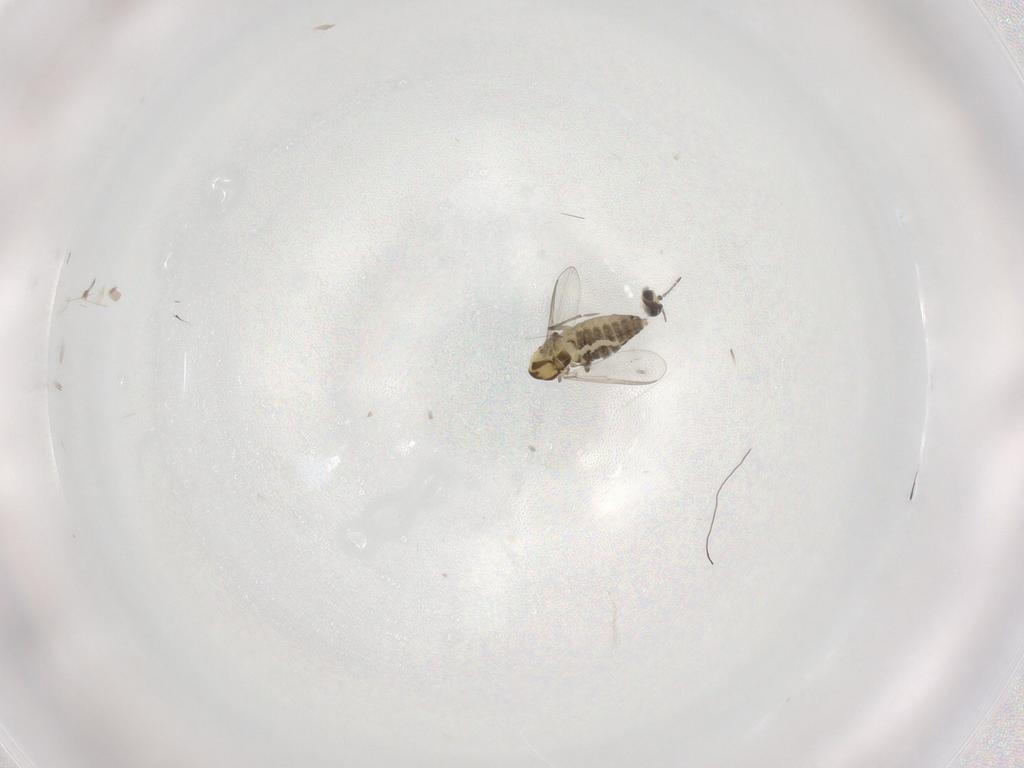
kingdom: Animalia
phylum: Arthropoda
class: Insecta
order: Diptera
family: Chironomidae
